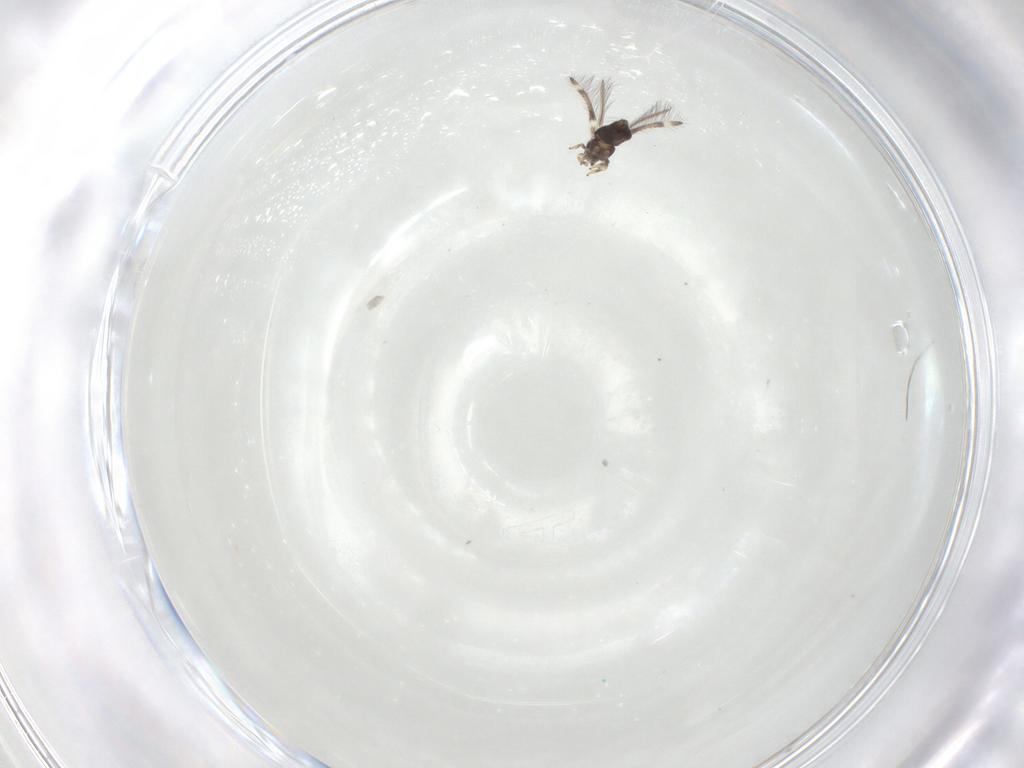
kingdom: Animalia
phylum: Arthropoda
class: Insecta
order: Thysanoptera
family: Thripidae
